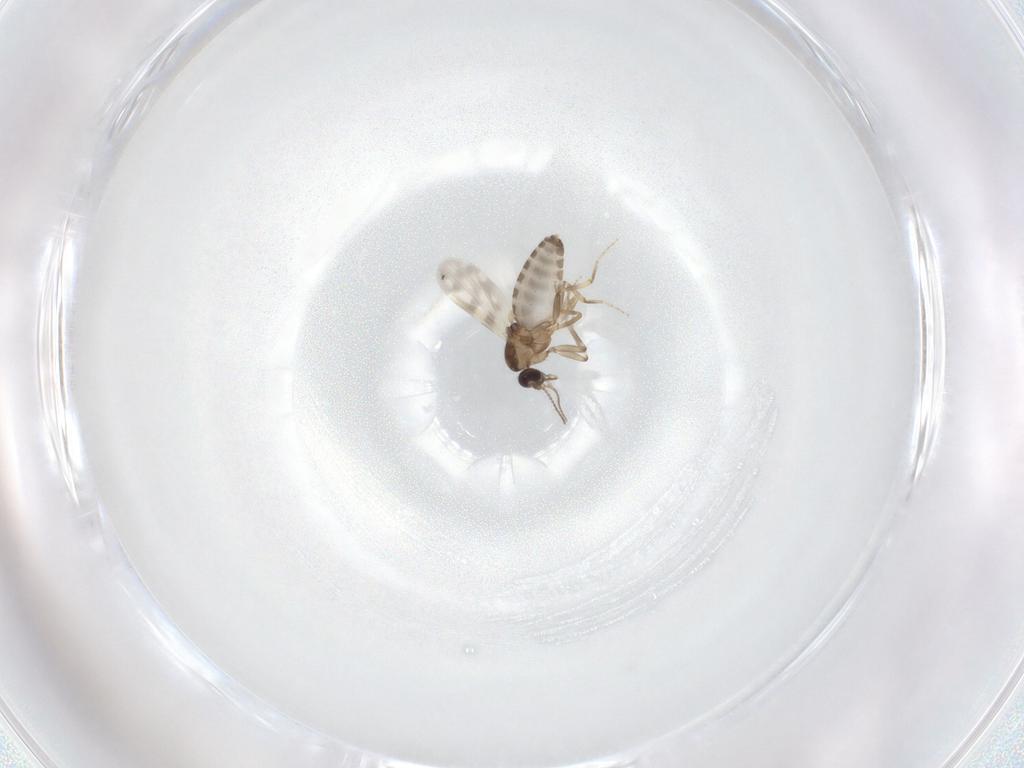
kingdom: Animalia
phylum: Arthropoda
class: Insecta
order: Diptera
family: Ceratopogonidae
